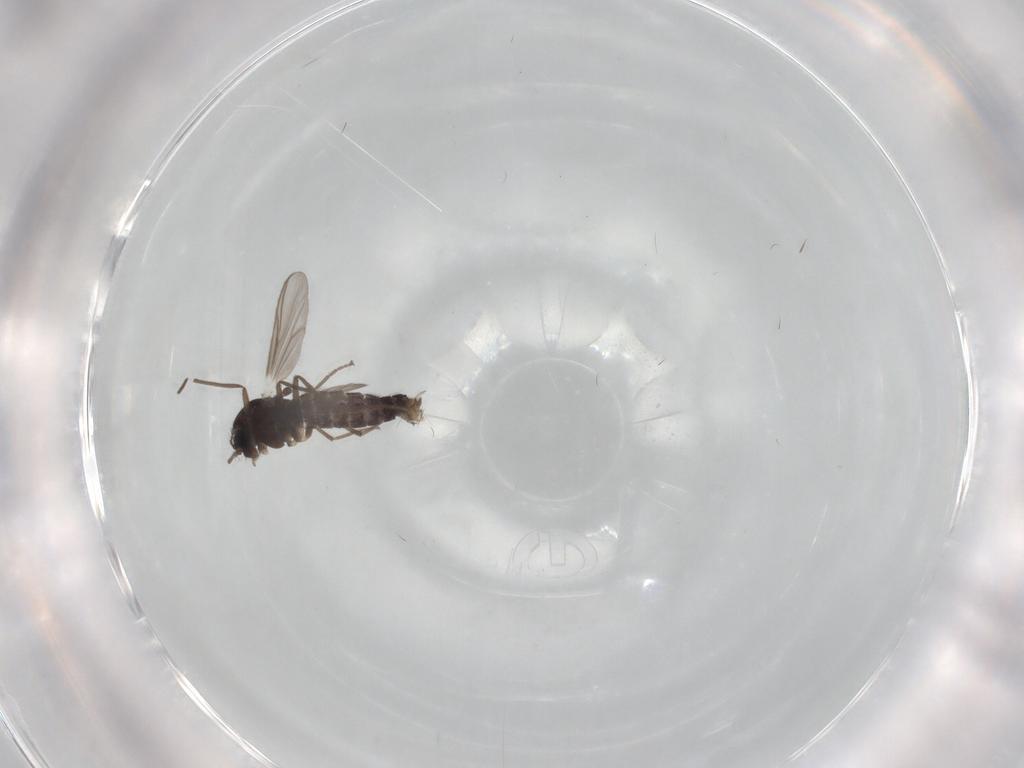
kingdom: Animalia
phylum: Arthropoda
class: Insecta
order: Diptera
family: Chironomidae
